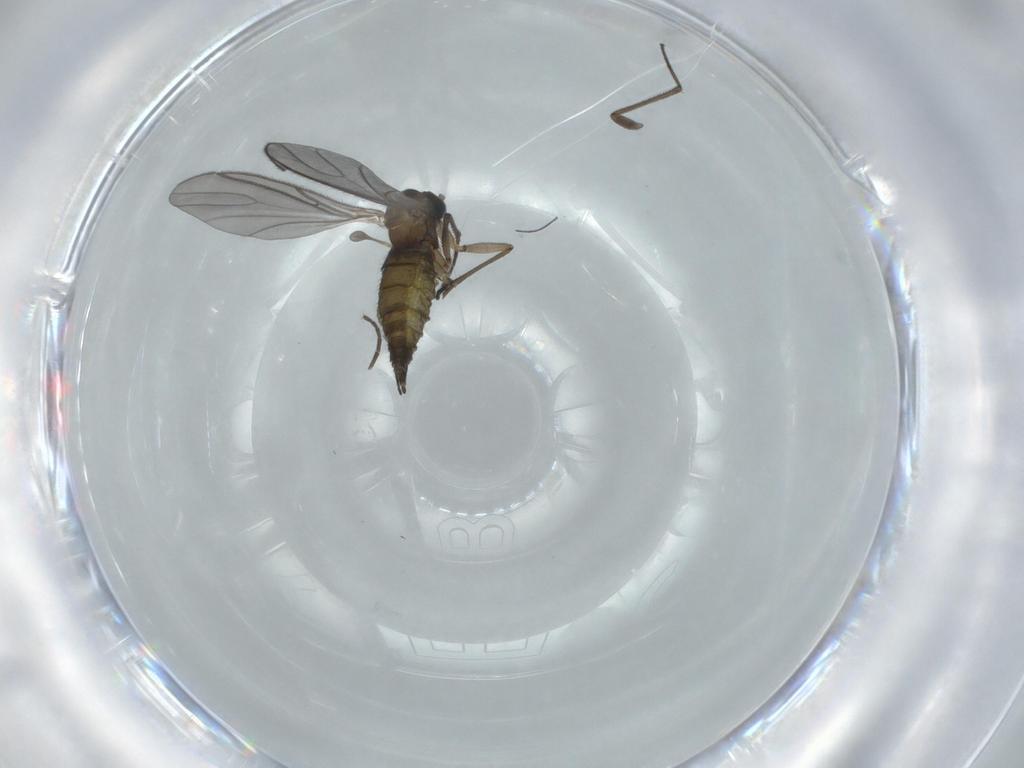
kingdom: Animalia
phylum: Arthropoda
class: Insecta
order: Diptera
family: Sciaridae
